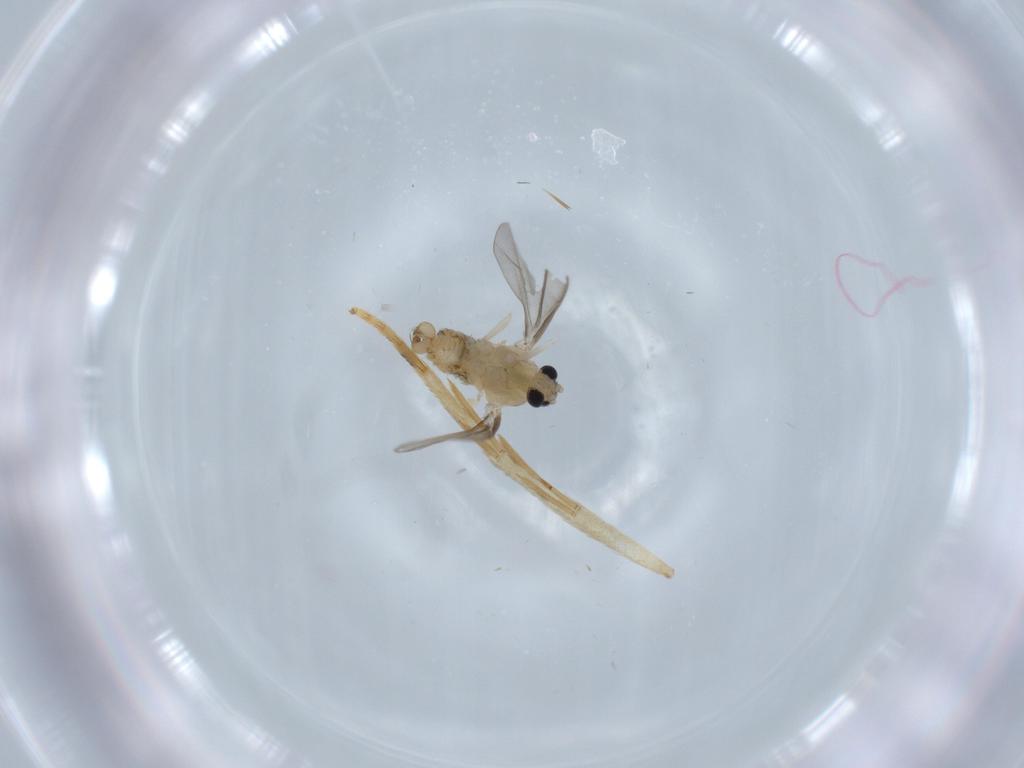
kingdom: Animalia
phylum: Arthropoda
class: Insecta
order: Diptera
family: Cecidomyiidae
